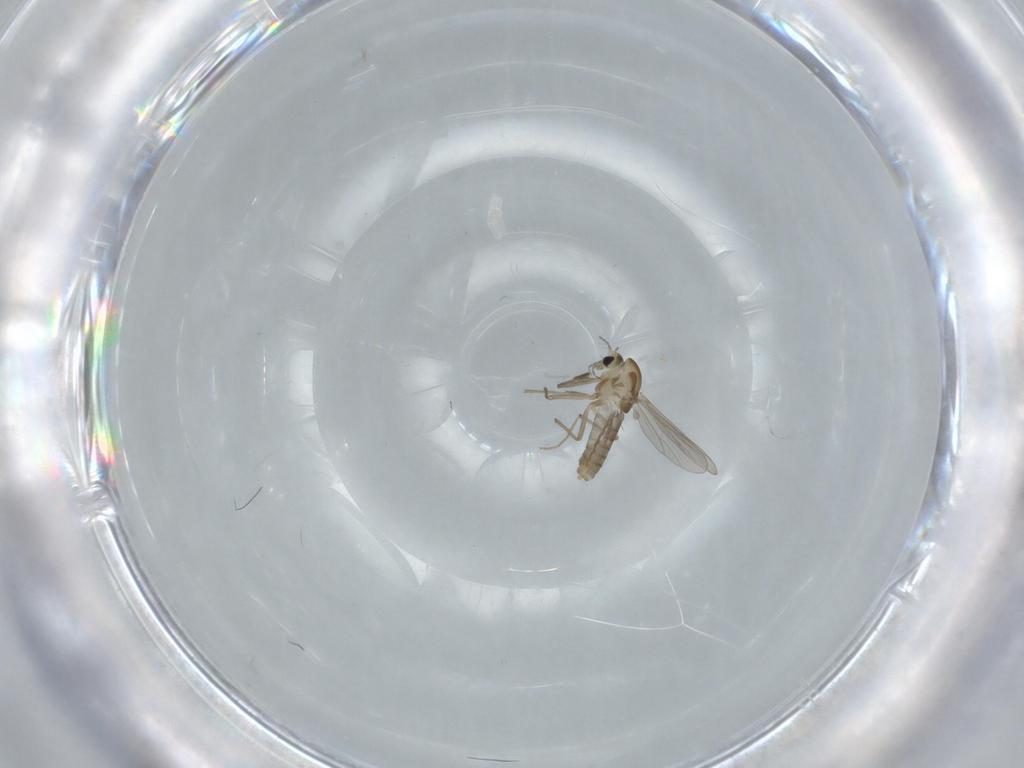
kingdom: Animalia
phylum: Arthropoda
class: Insecta
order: Diptera
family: Chironomidae
